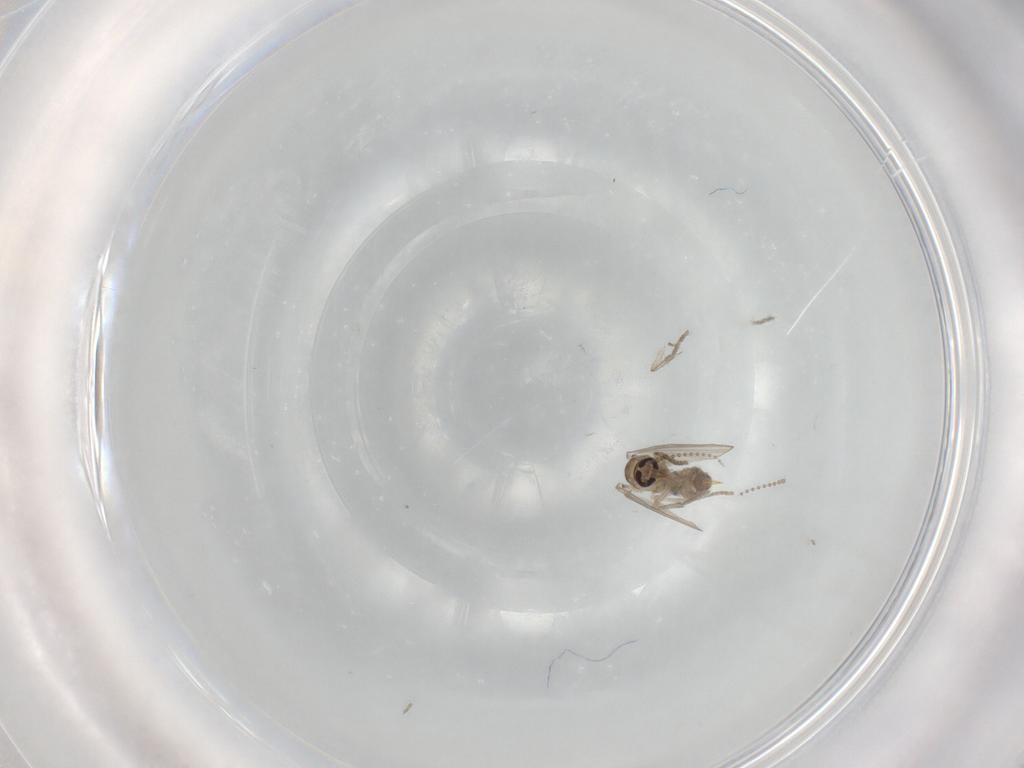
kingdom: Animalia
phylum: Arthropoda
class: Insecta
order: Diptera
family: Psychodidae
